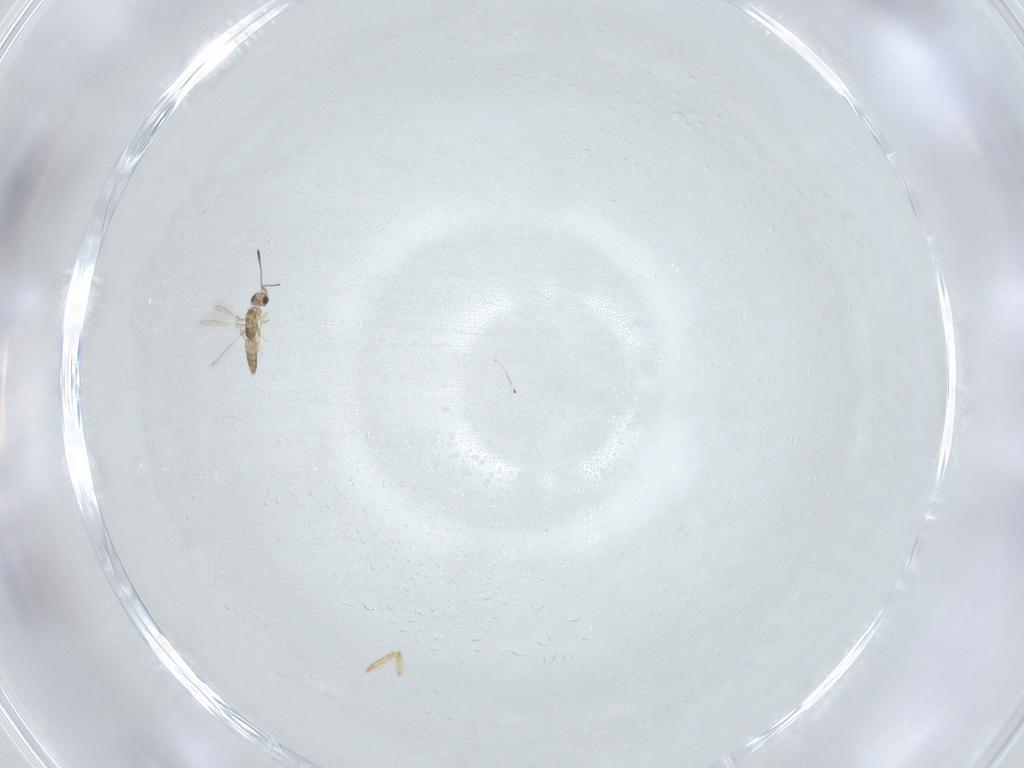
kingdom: Animalia
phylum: Arthropoda
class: Insecta
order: Hymenoptera
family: Mymaridae
